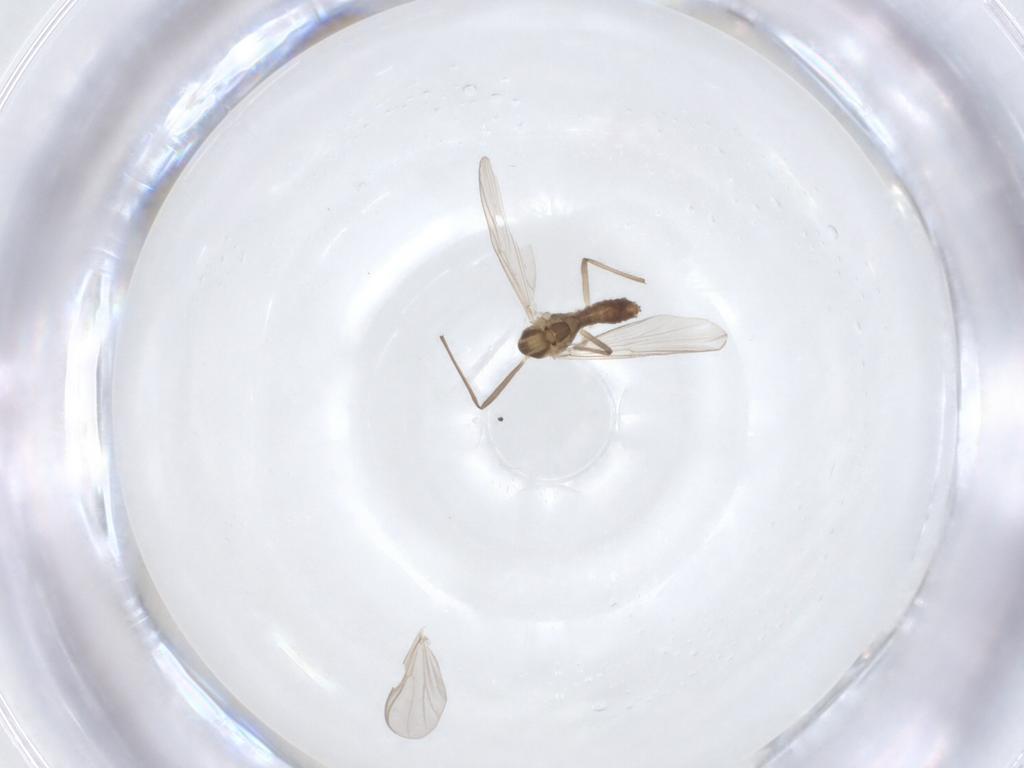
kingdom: Animalia
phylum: Arthropoda
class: Insecta
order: Diptera
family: Chironomidae
